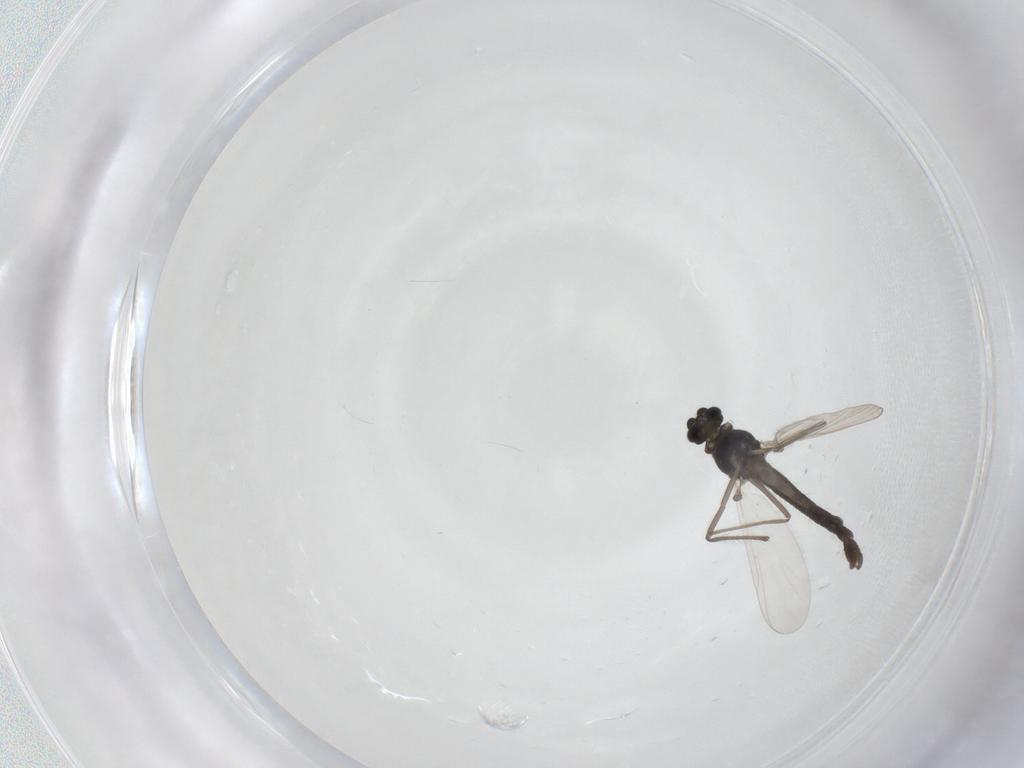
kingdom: Animalia
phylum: Arthropoda
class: Insecta
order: Diptera
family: Chironomidae
